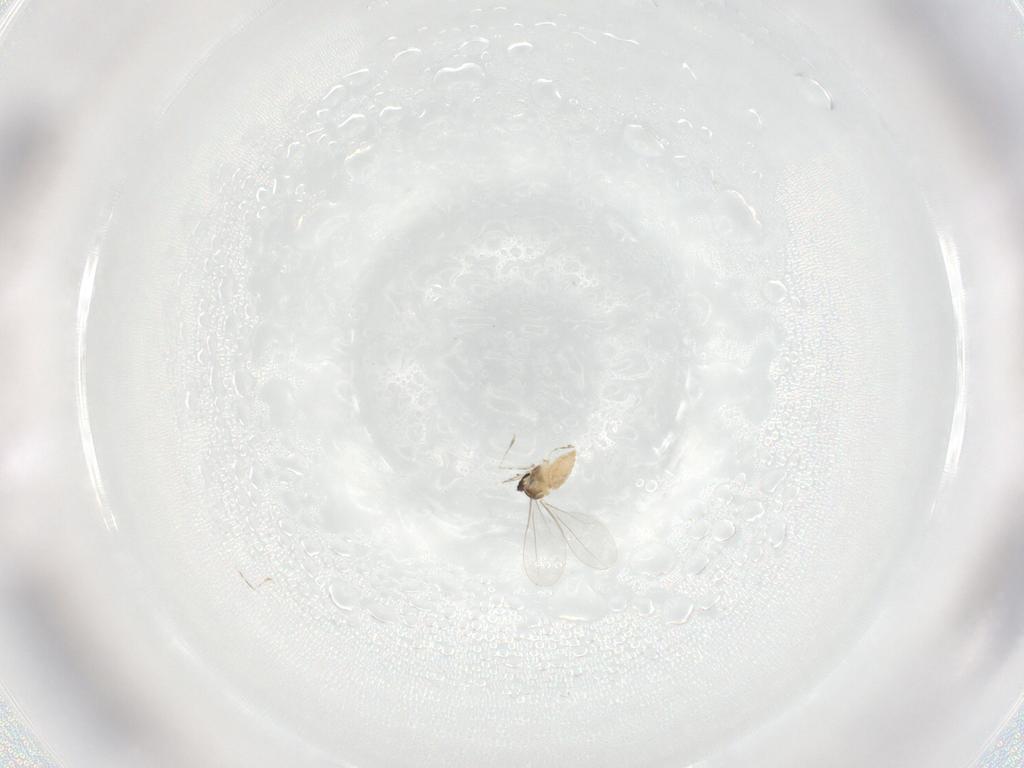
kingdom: Animalia
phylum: Arthropoda
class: Insecta
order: Diptera
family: Cecidomyiidae
